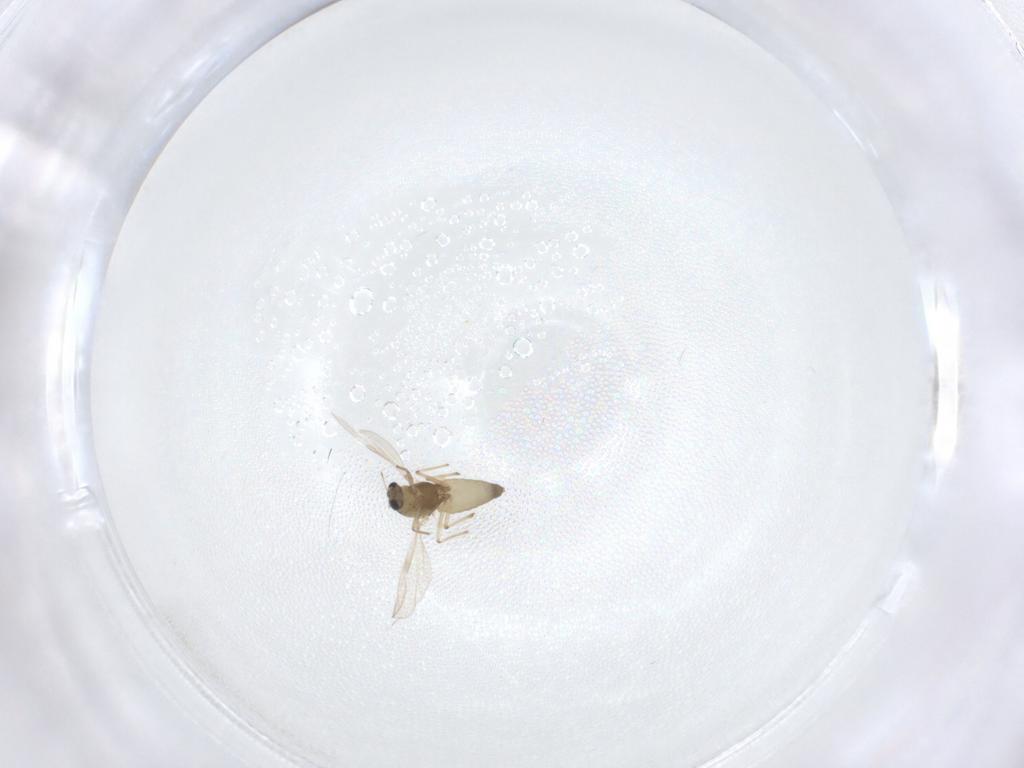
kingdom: Animalia
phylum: Arthropoda
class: Insecta
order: Diptera
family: Chironomidae
